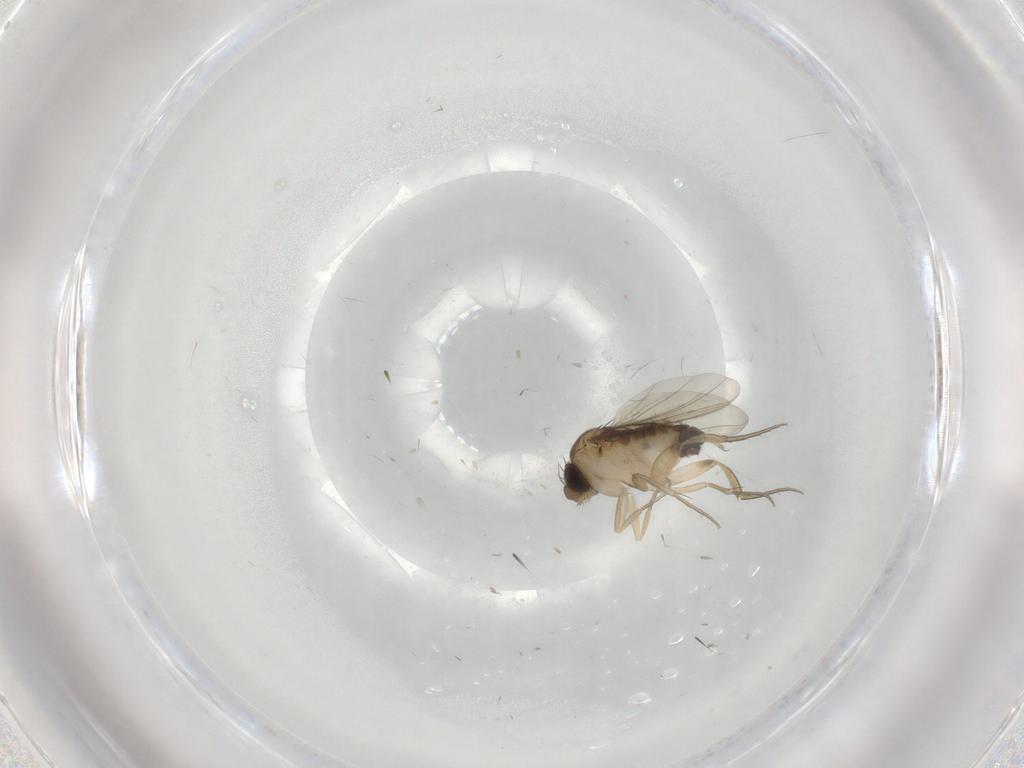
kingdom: Animalia
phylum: Arthropoda
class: Insecta
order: Diptera
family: Phoridae
